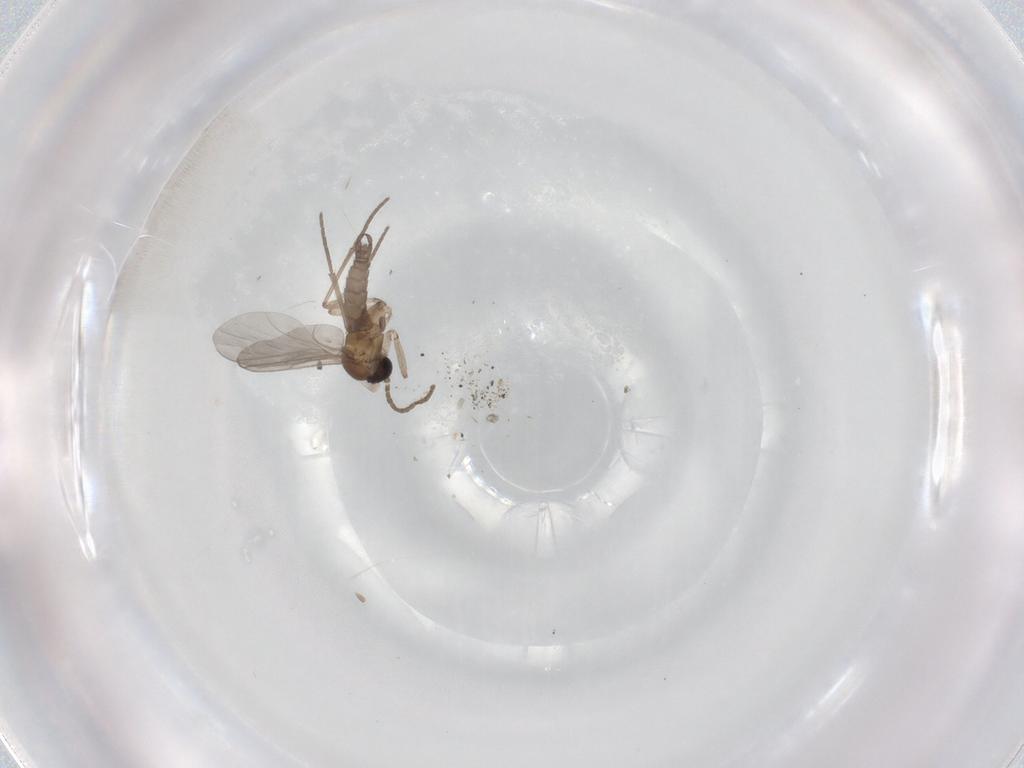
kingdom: Animalia
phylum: Arthropoda
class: Insecta
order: Diptera
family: Sciaridae
